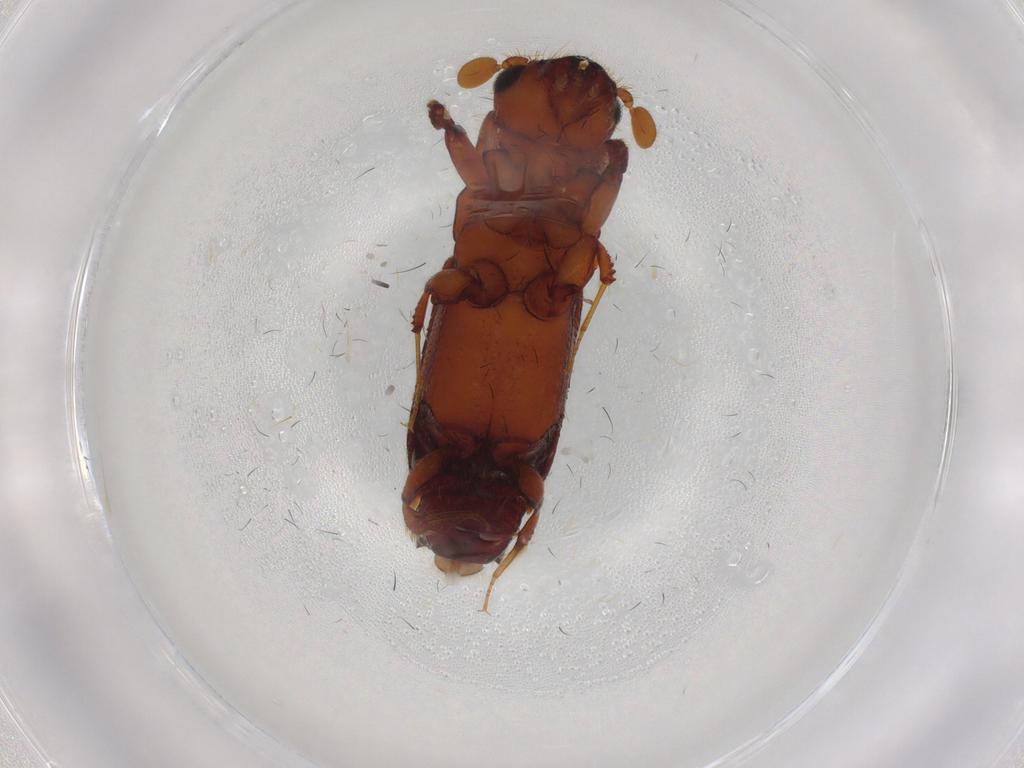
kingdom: Animalia
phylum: Arthropoda
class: Insecta
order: Coleoptera
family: Curculionidae
